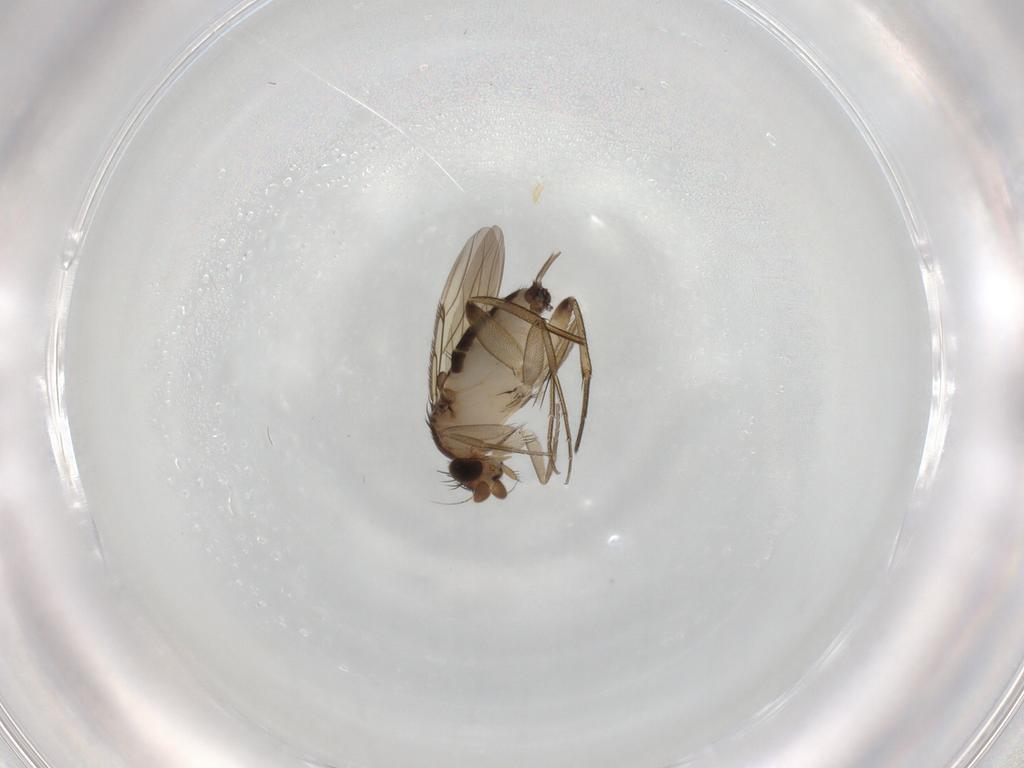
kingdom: Animalia
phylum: Arthropoda
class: Insecta
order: Diptera
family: Phoridae
